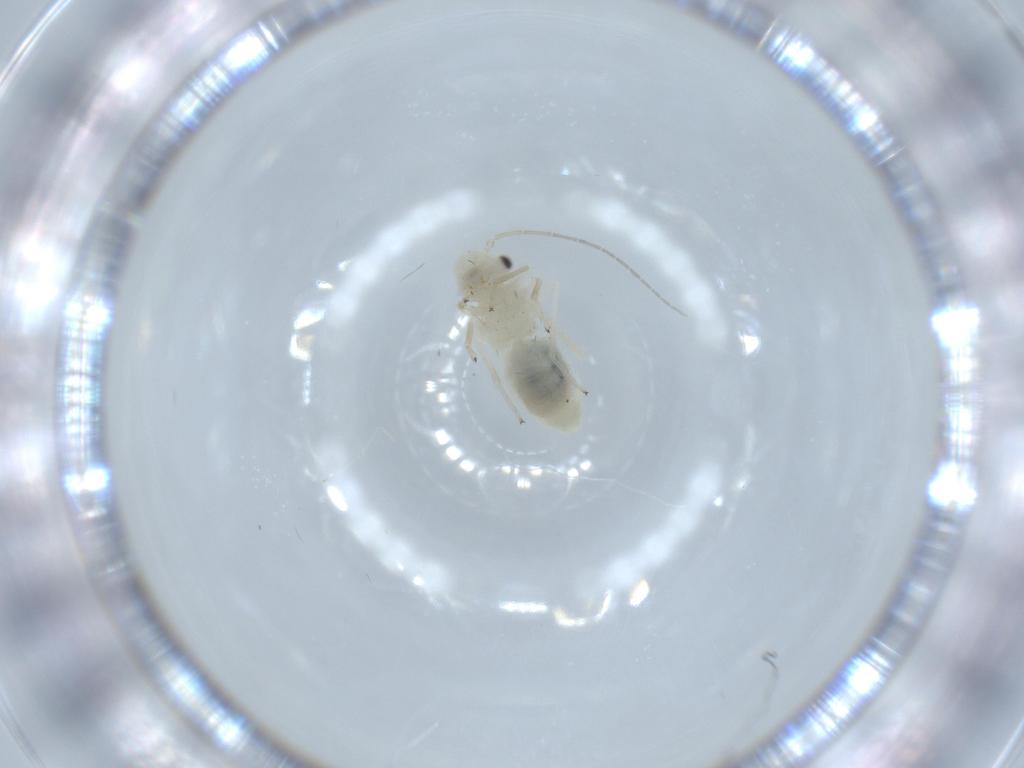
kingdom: Animalia
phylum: Arthropoda
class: Insecta
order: Psocodea
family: Caeciliusidae
